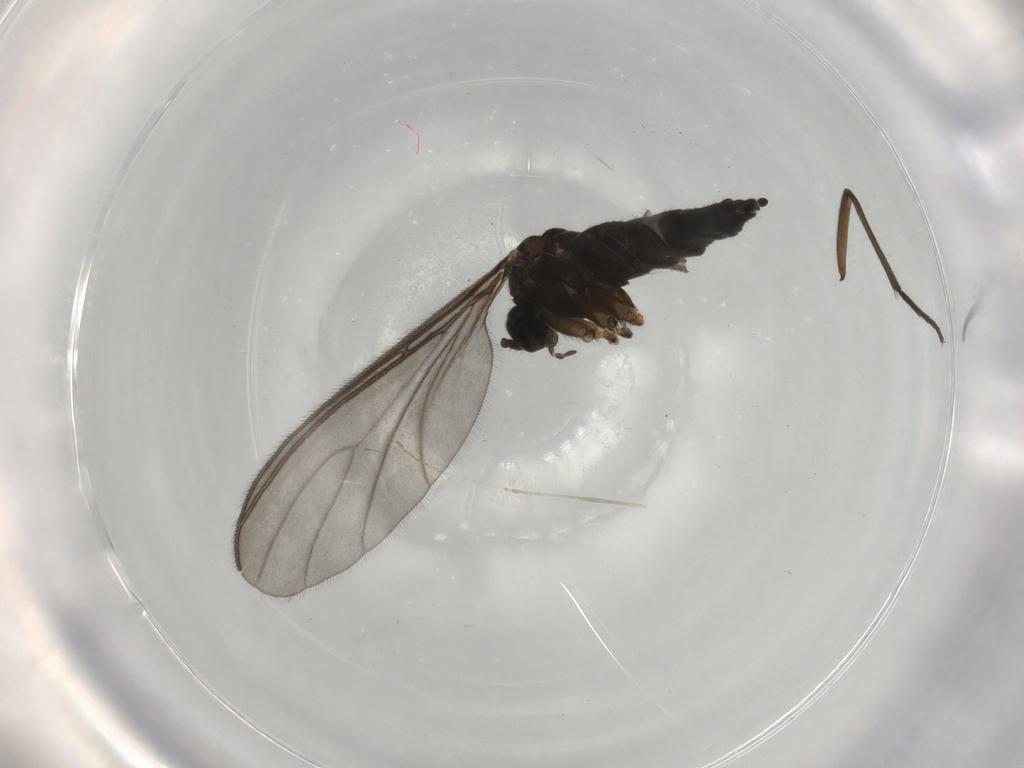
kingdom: Animalia
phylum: Arthropoda
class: Insecta
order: Diptera
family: Sciaridae
